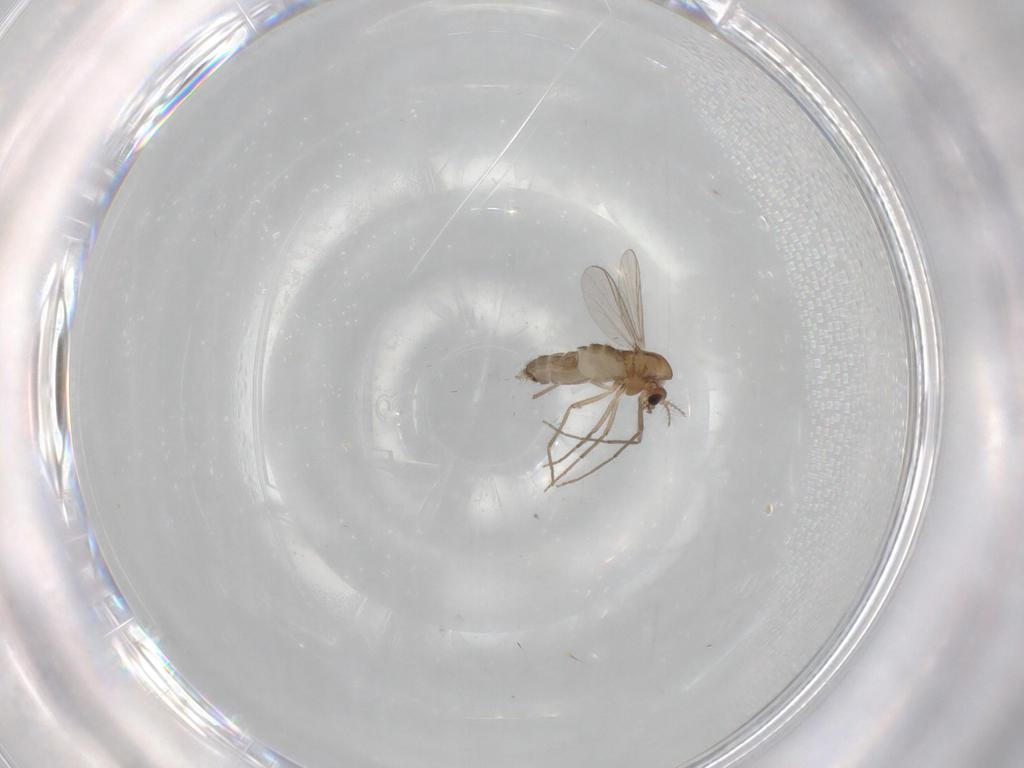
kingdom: Animalia
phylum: Arthropoda
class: Insecta
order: Diptera
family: Chironomidae
